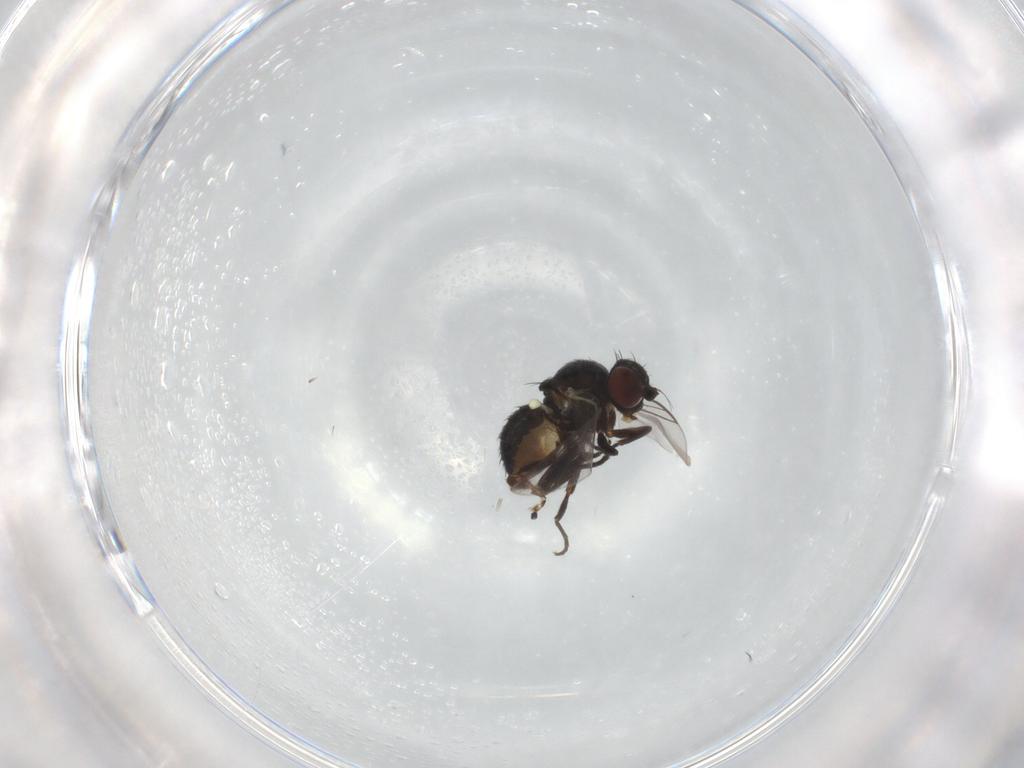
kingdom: Animalia
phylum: Arthropoda
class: Insecta
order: Diptera
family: Agromyzidae
